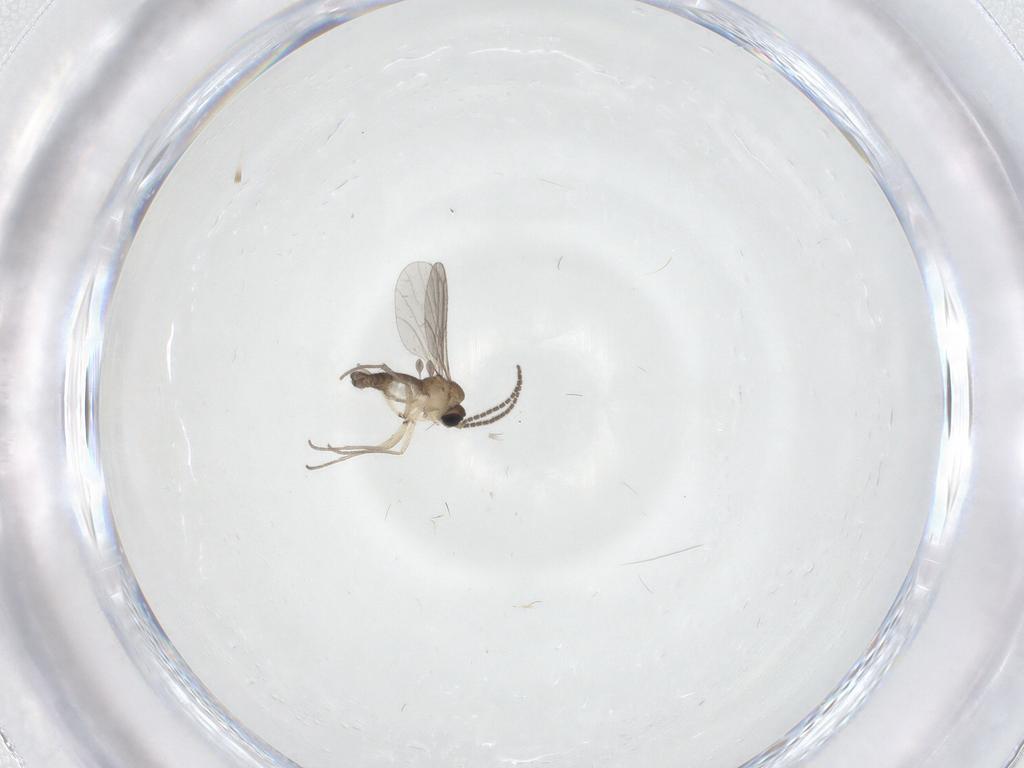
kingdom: Animalia
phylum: Arthropoda
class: Insecta
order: Diptera
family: Sciaridae
